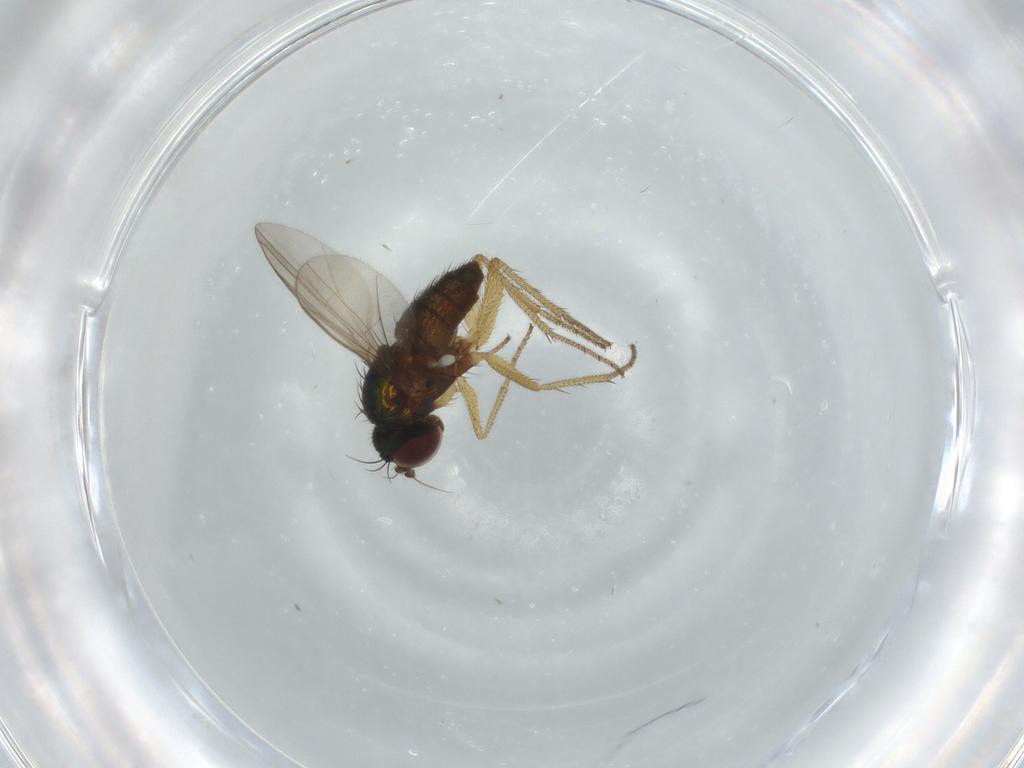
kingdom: Animalia
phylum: Arthropoda
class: Insecta
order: Diptera
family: Dolichopodidae
